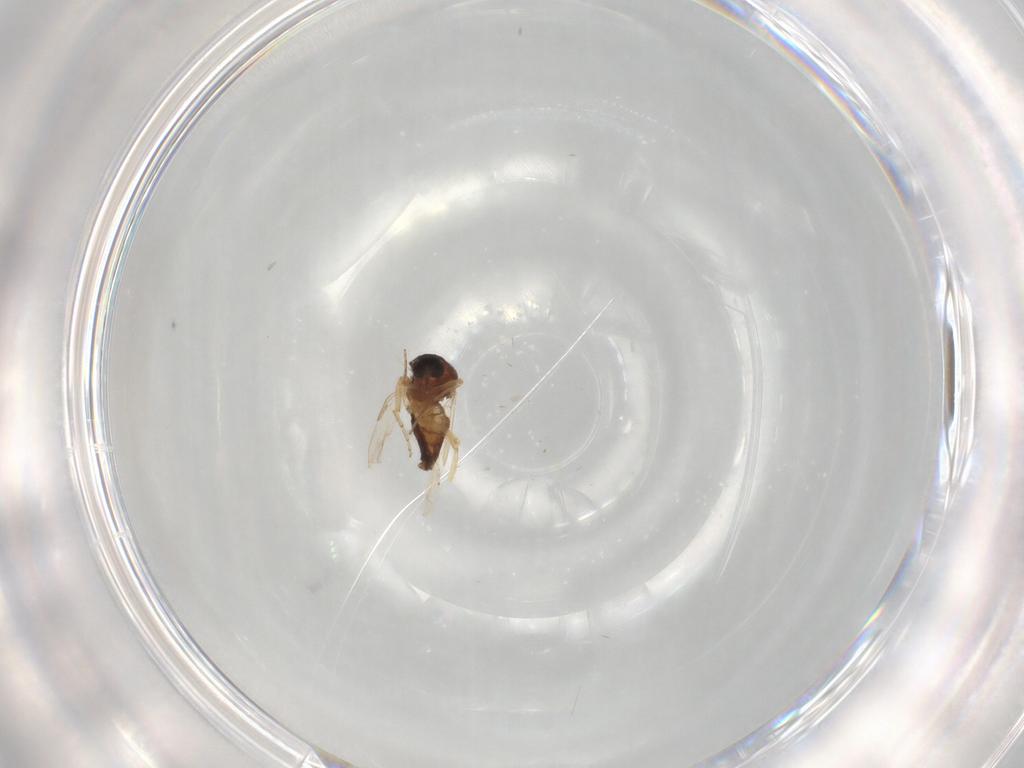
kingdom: Animalia
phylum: Arthropoda
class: Insecta
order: Diptera
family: Ceratopogonidae
